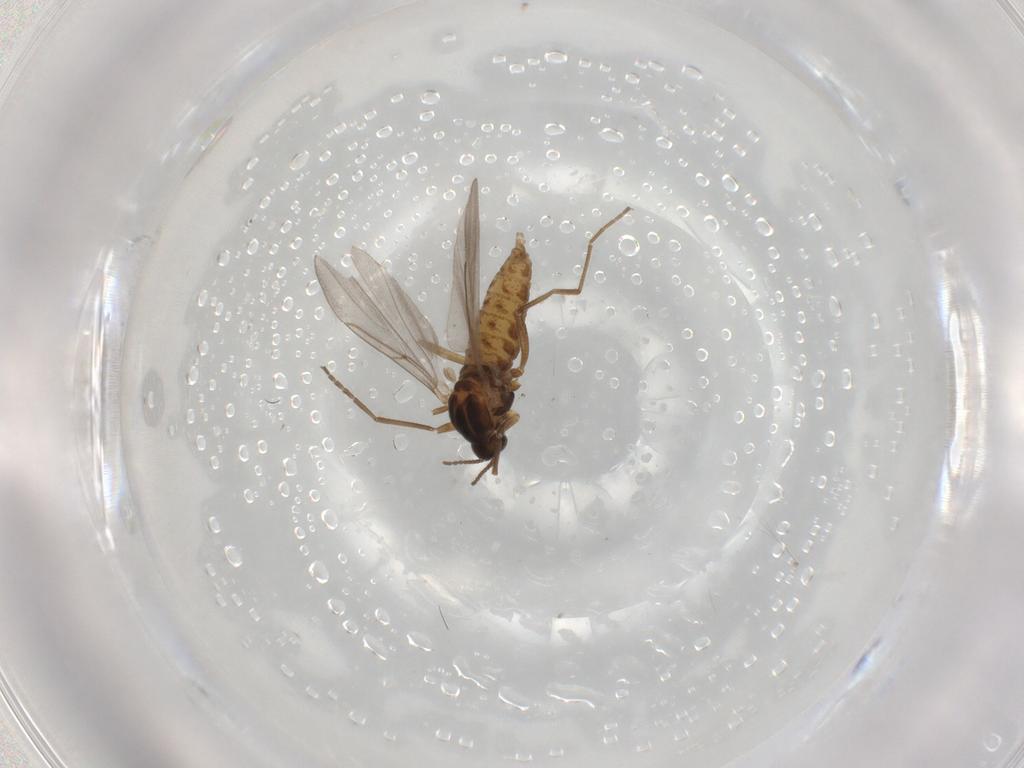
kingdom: Animalia
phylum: Arthropoda
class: Insecta
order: Diptera
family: Cecidomyiidae
